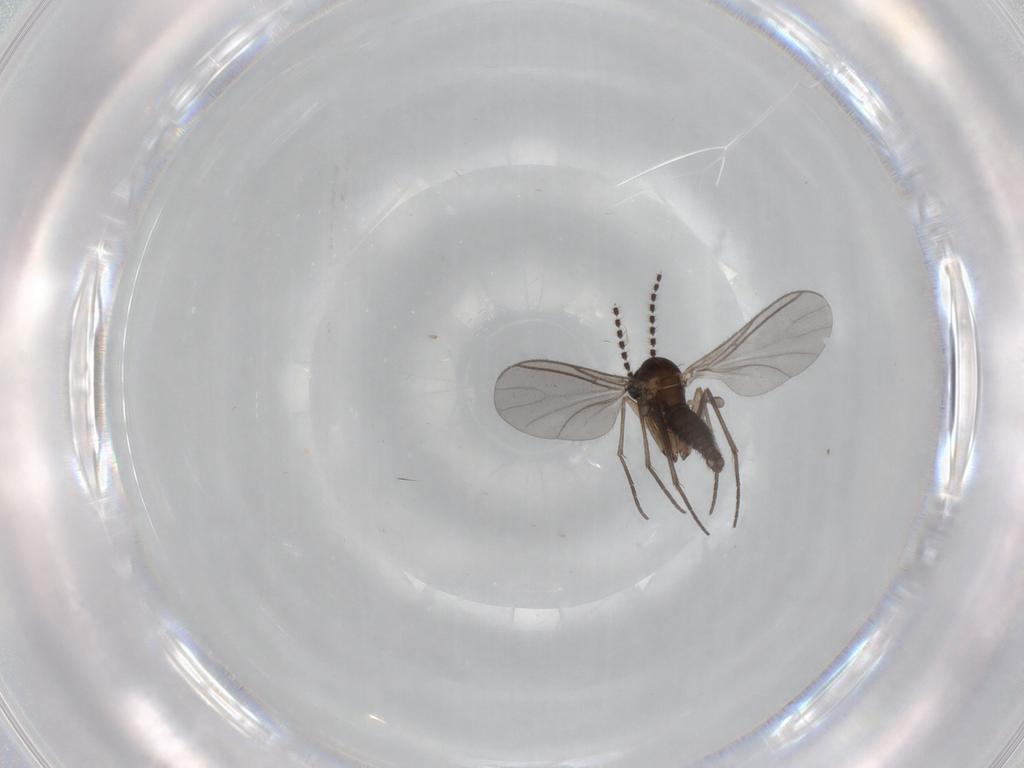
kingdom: Animalia
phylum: Arthropoda
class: Insecta
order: Diptera
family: Sciaridae
